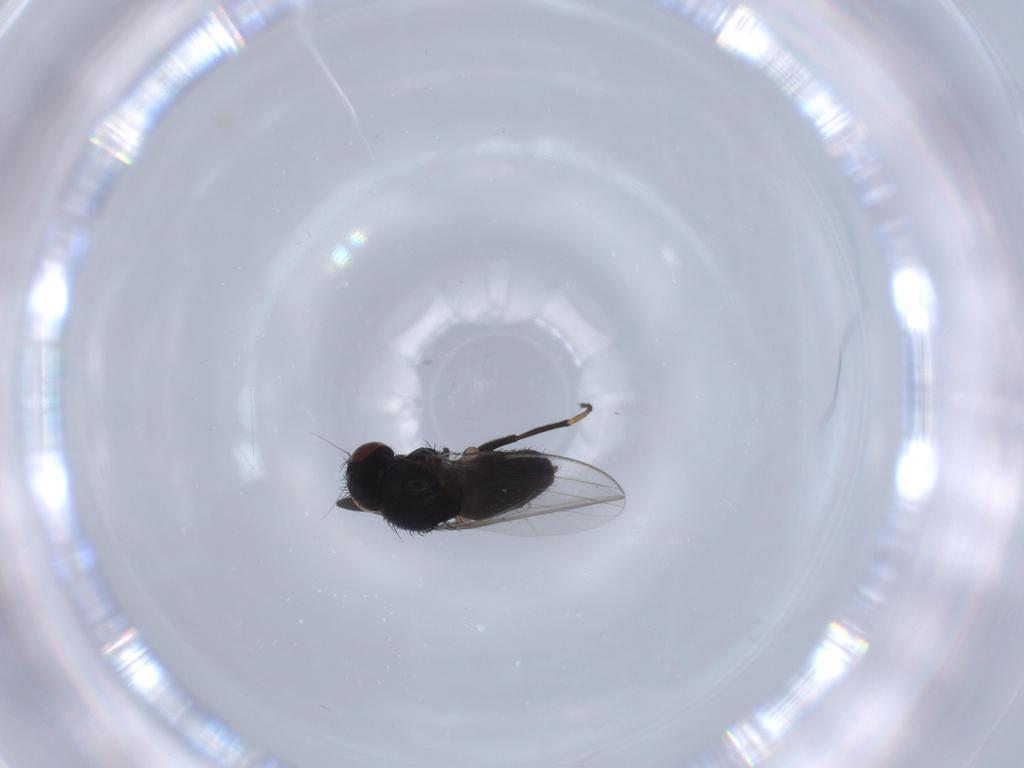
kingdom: Animalia
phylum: Arthropoda
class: Insecta
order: Diptera
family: Milichiidae
